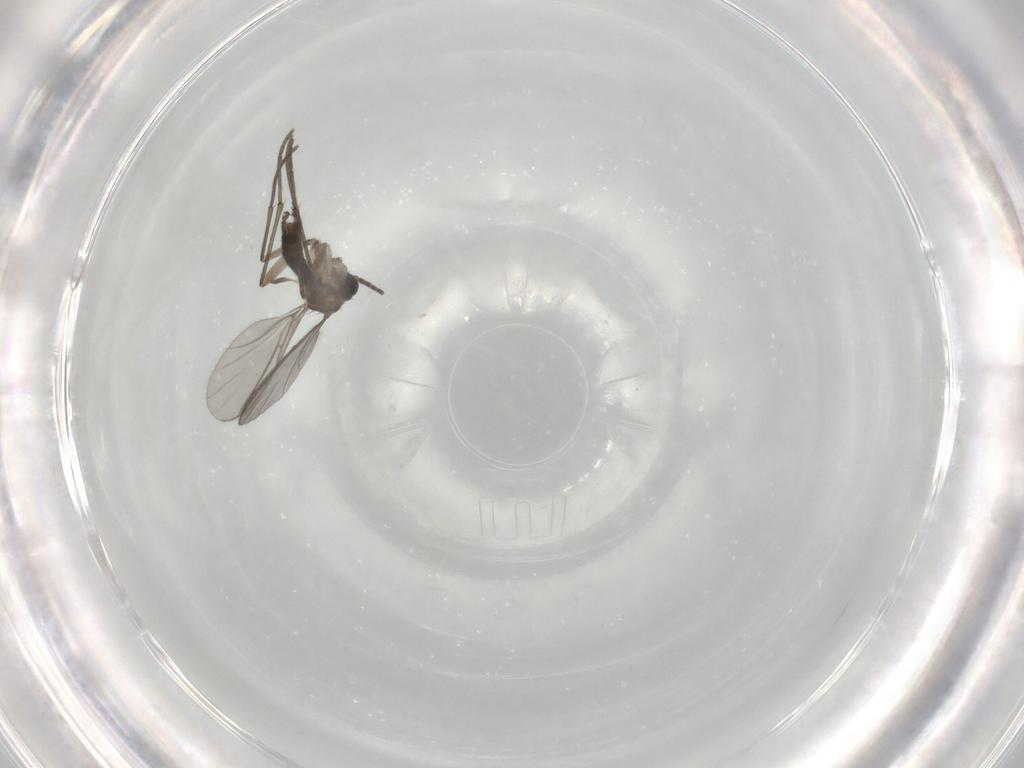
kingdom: Animalia
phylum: Arthropoda
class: Insecta
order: Diptera
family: Sciaridae
